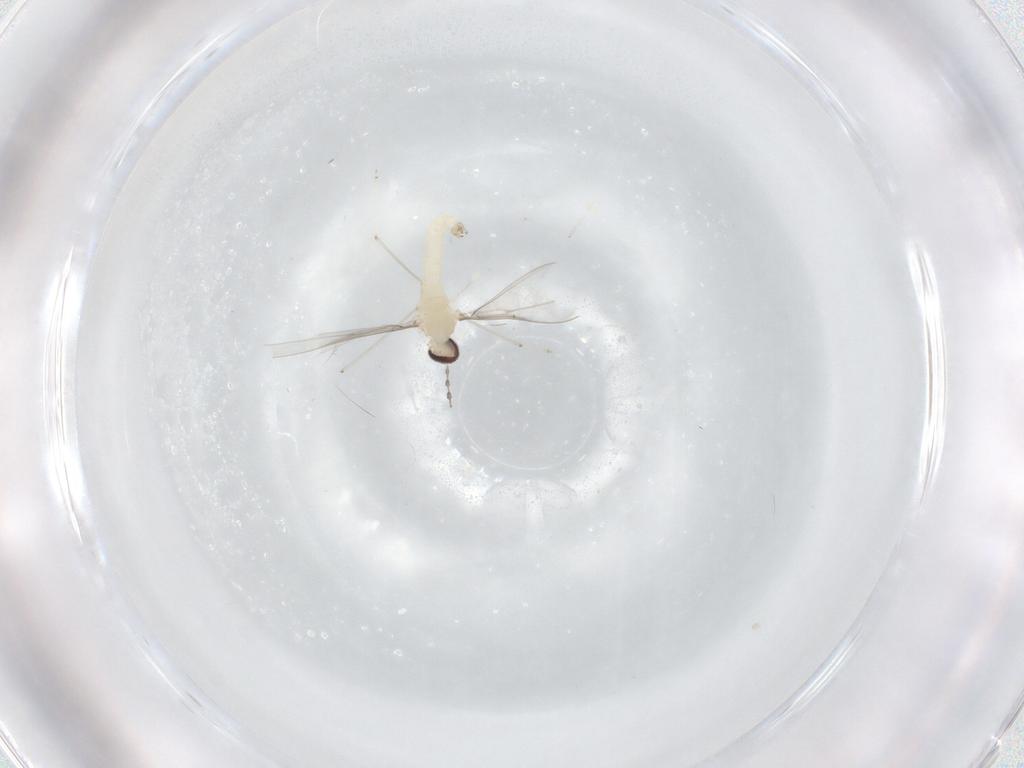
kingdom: Animalia
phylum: Arthropoda
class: Insecta
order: Diptera
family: Cecidomyiidae
